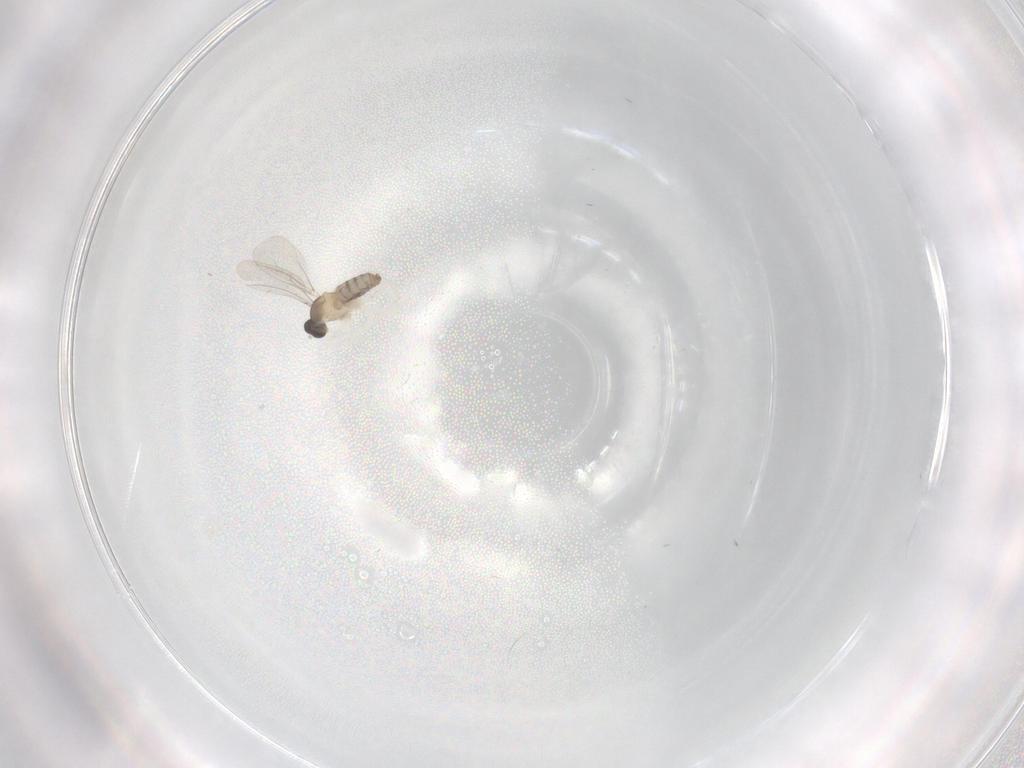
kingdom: Animalia
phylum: Arthropoda
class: Insecta
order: Diptera
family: Cecidomyiidae
